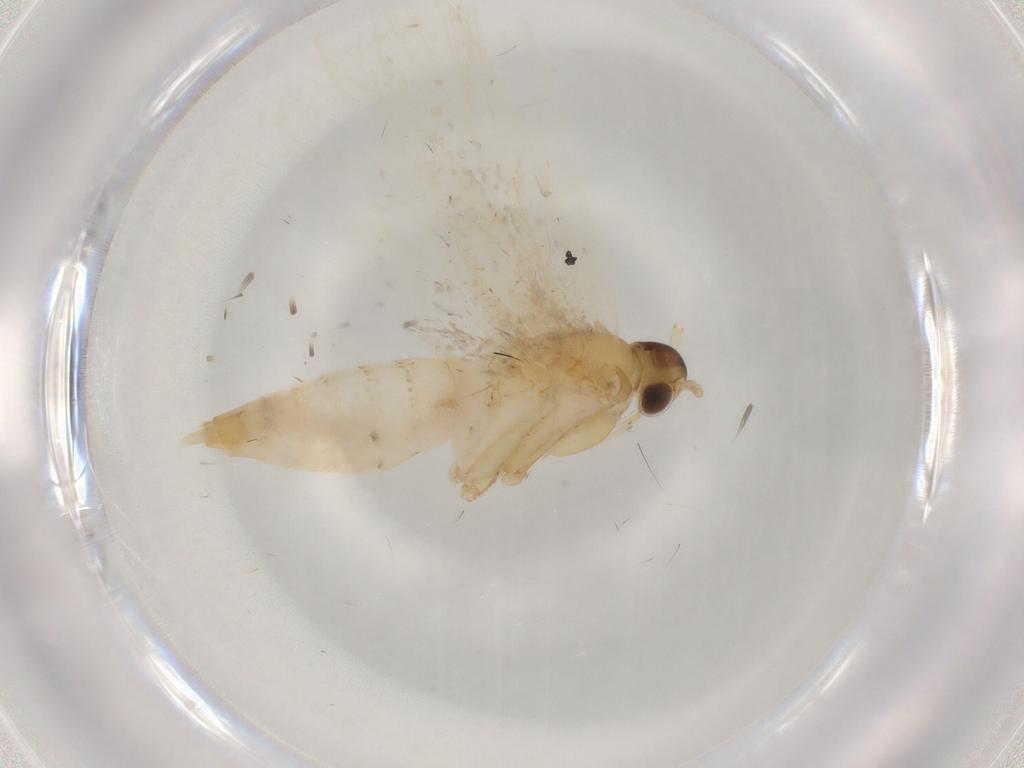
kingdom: Animalia
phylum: Arthropoda
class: Insecta
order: Lepidoptera
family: Lecithoceridae
